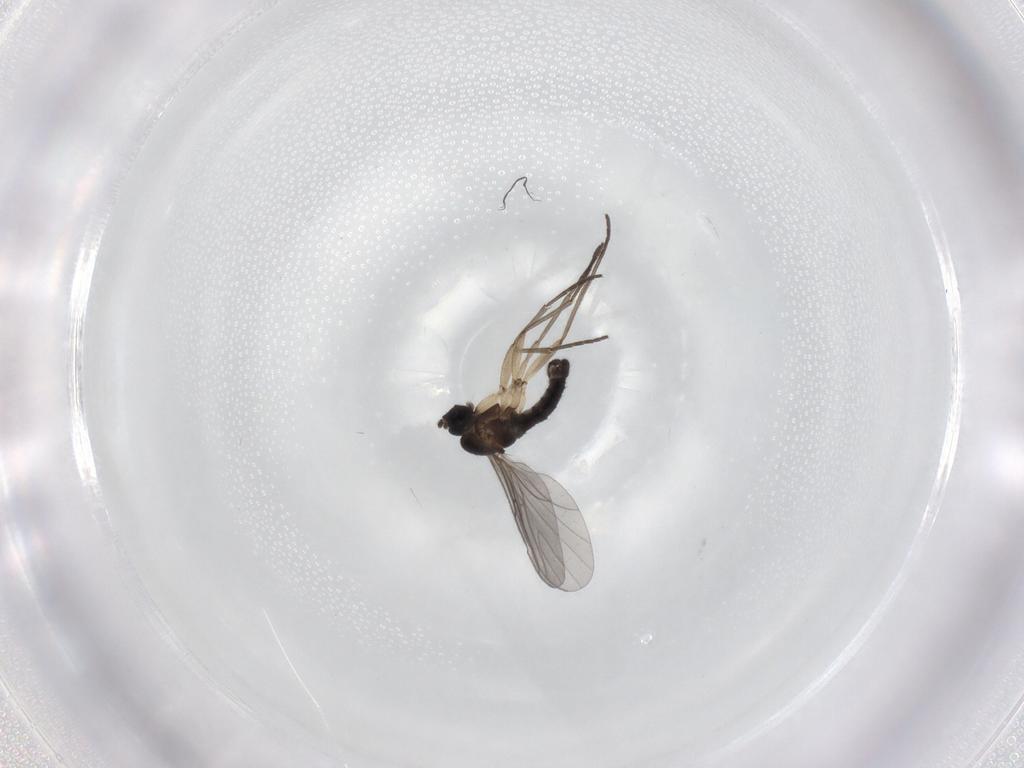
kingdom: Animalia
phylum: Arthropoda
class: Insecta
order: Diptera
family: Sciaridae
